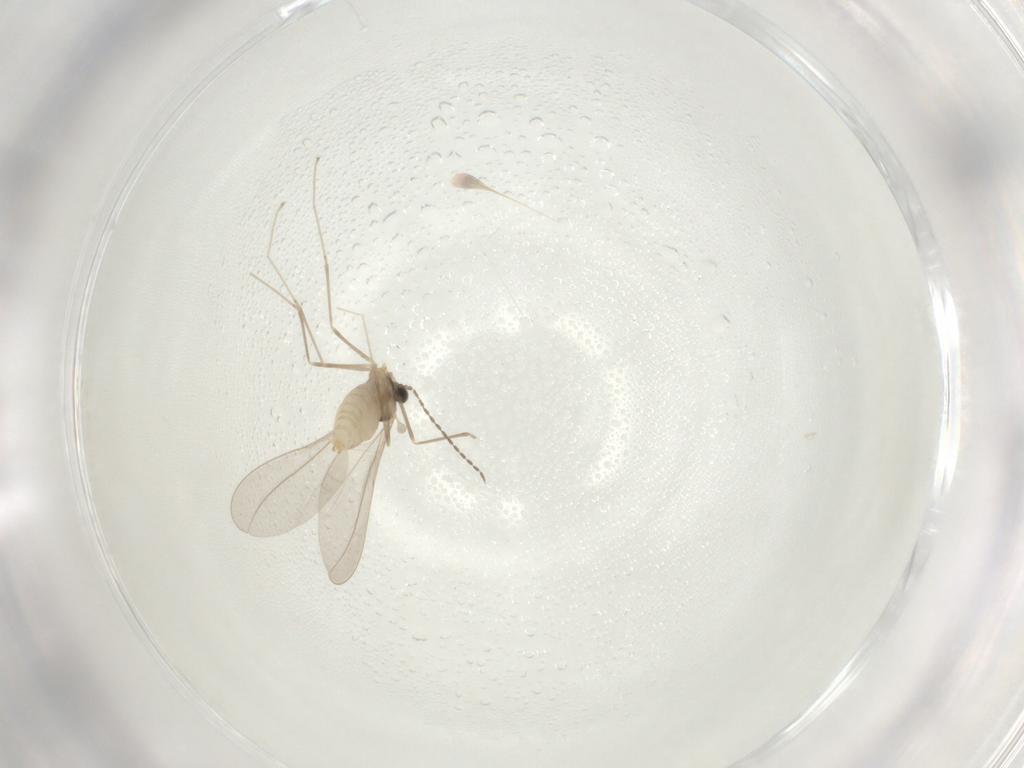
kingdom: Animalia
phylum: Arthropoda
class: Insecta
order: Diptera
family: Cecidomyiidae
